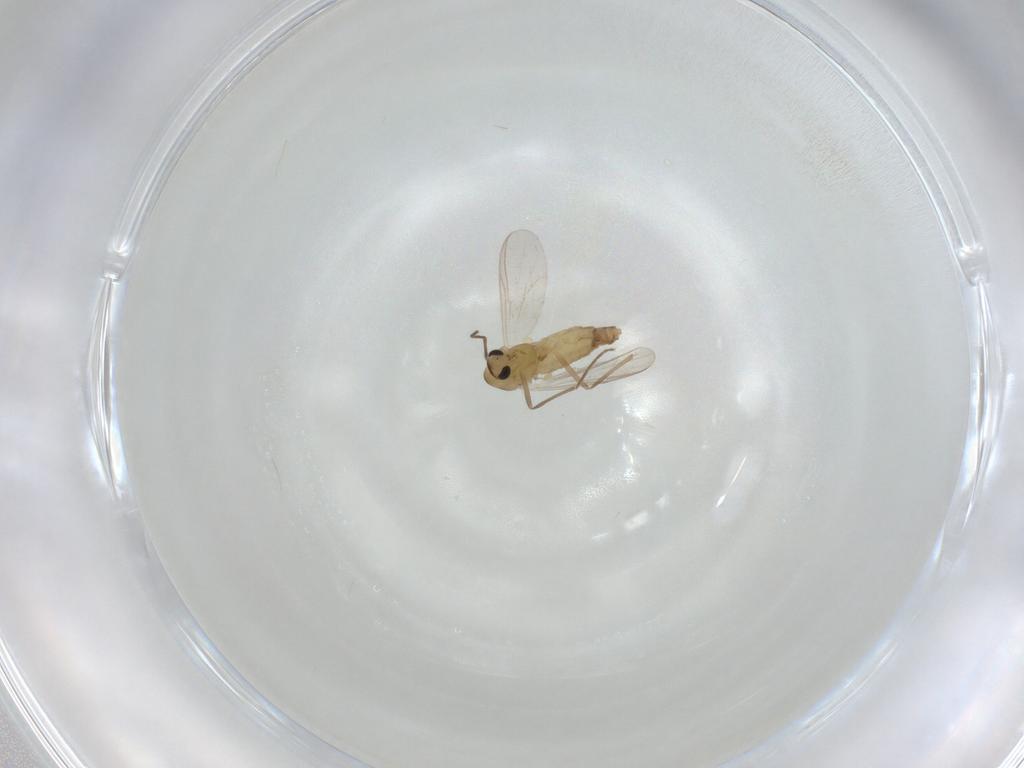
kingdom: Animalia
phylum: Arthropoda
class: Insecta
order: Diptera
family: Chironomidae
